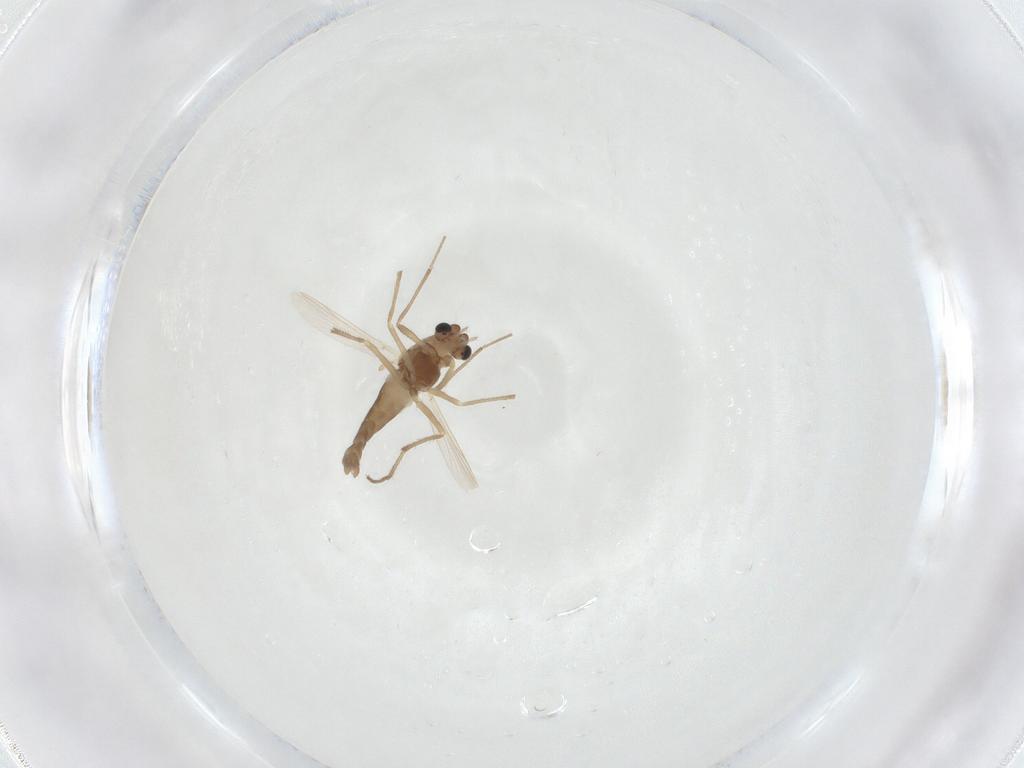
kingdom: Animalia
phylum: Arthropoda
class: Insecta
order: Diptera
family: Chironomidae
